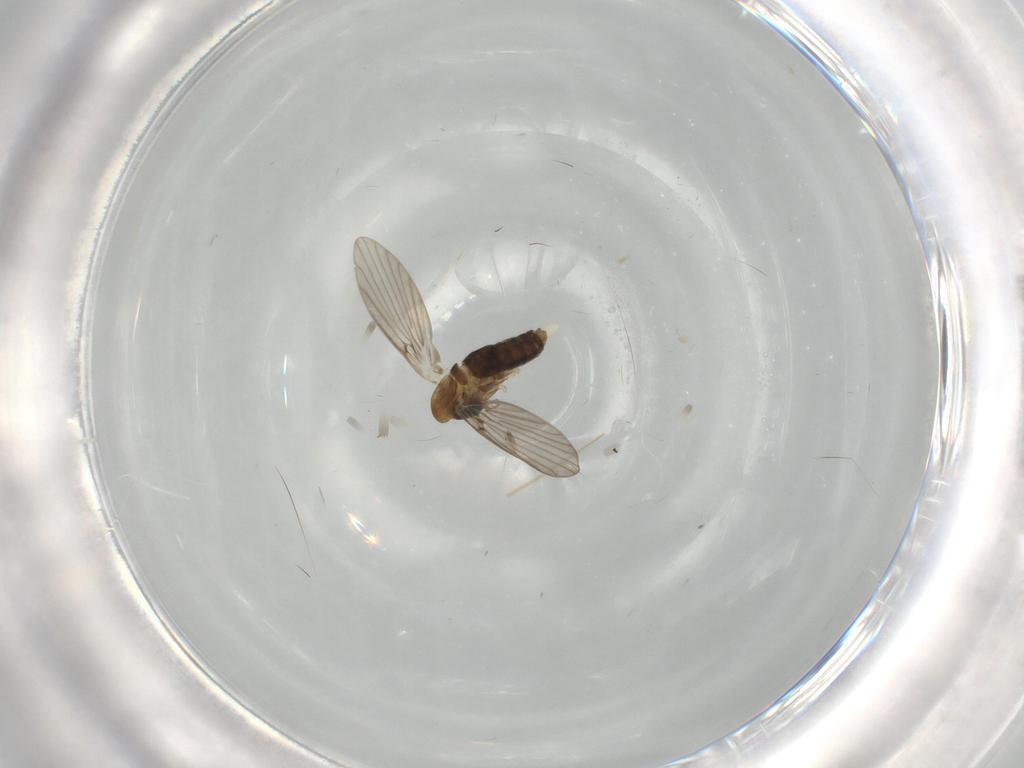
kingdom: Animalia
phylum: Arthropoda
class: Insecta
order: Diptera
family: Psychodidae
